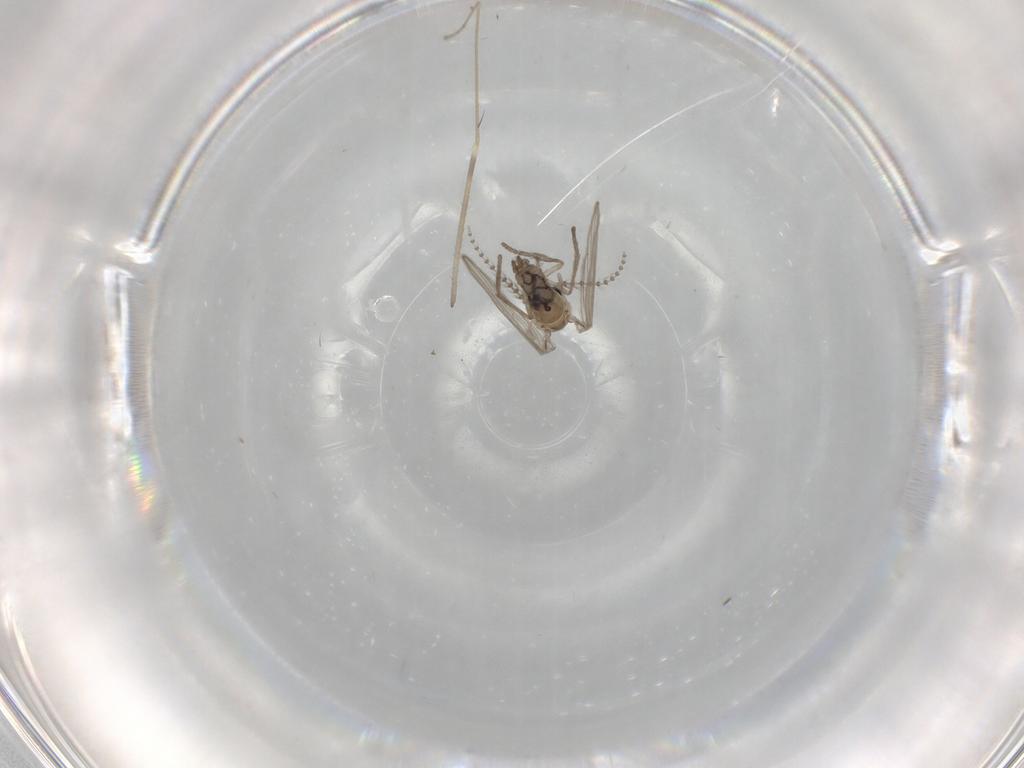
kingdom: Animalia
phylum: Arthropoda
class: Insecta
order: Diptera
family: Psychodidae
